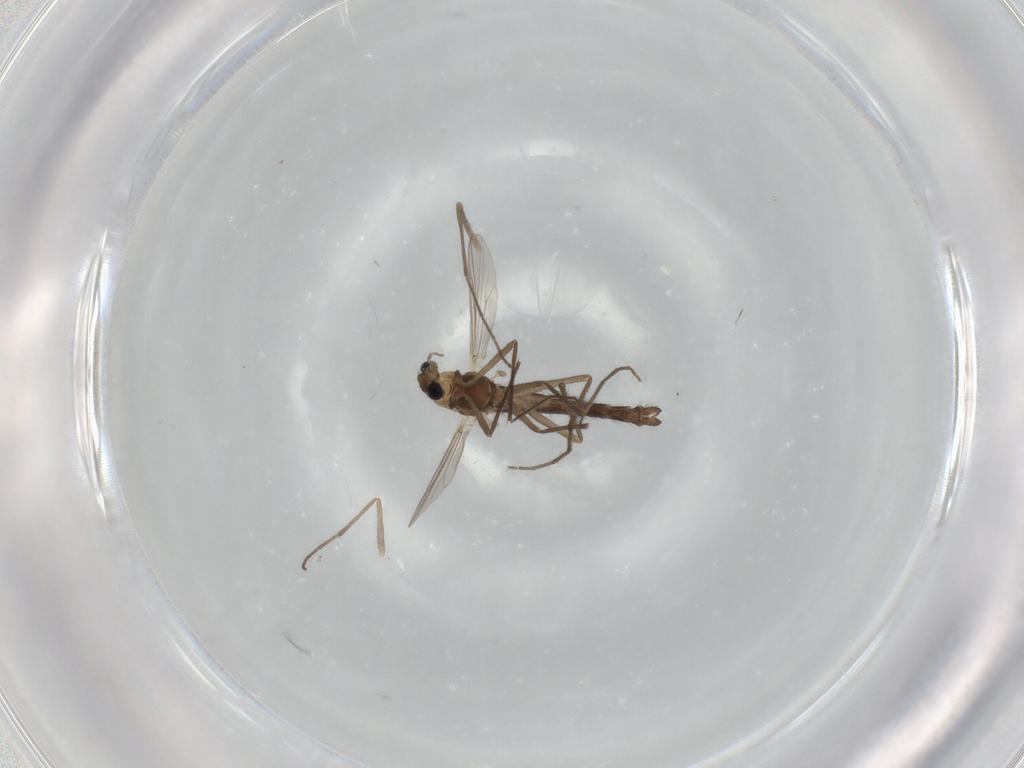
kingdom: Animalia
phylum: Arthropoda
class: Insecta
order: Diptera
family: Chironomidae
